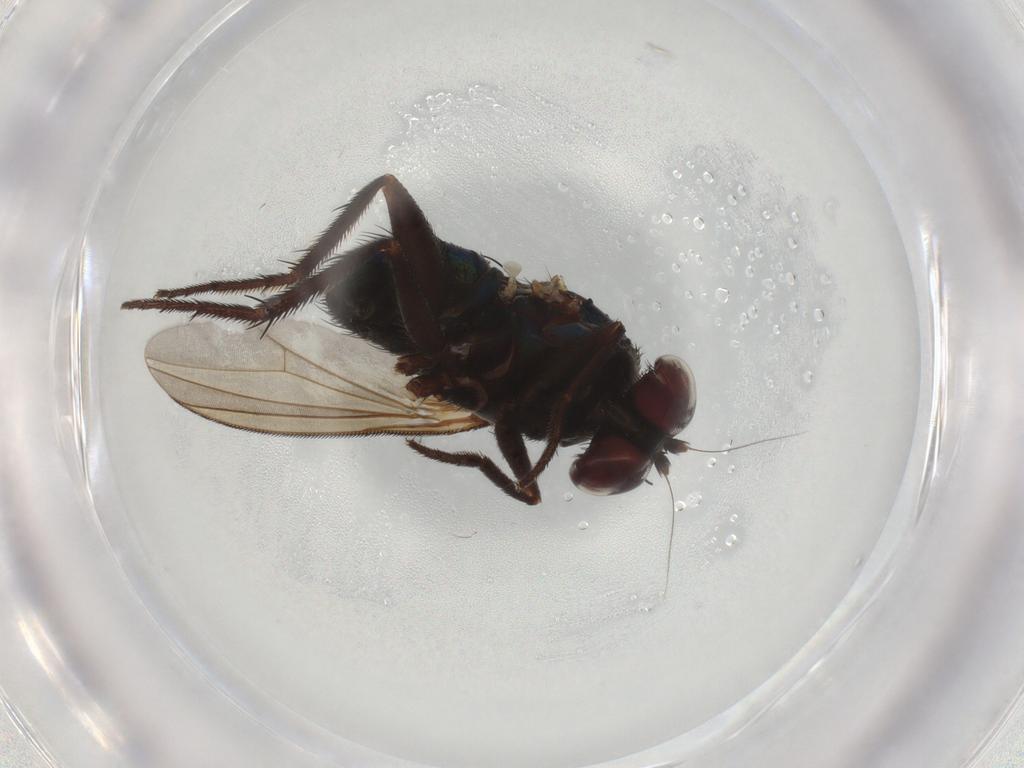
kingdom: Animalia
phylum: Arthropoda
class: Insecta
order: Diptera
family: Dolichopodidae
